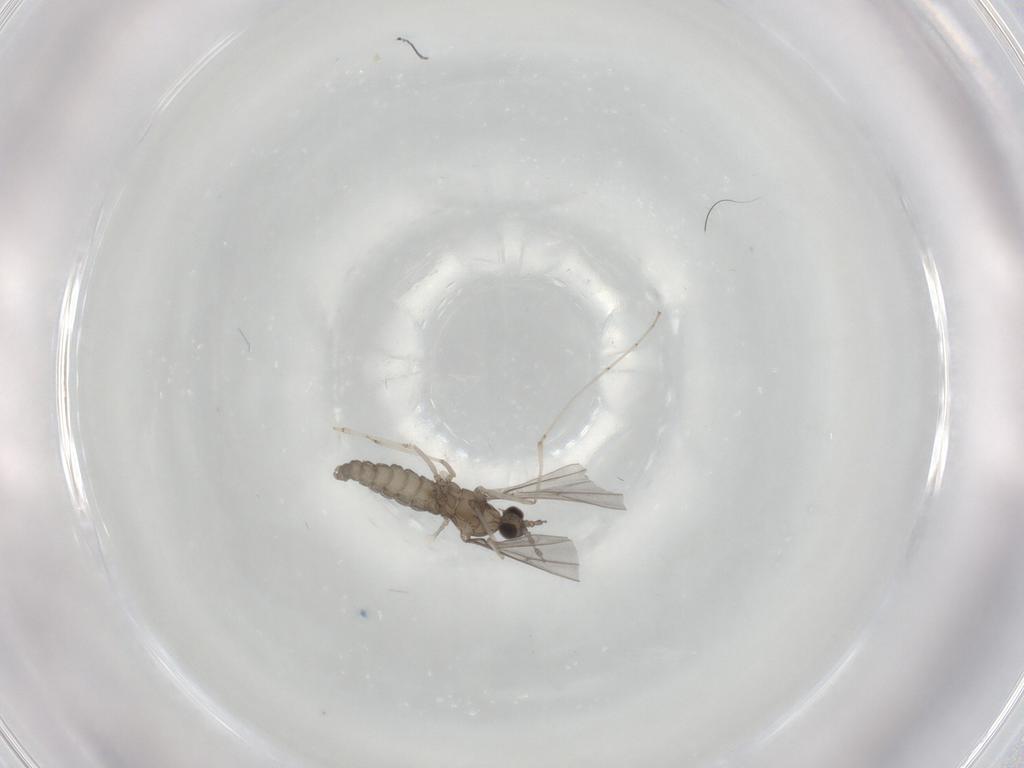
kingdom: Animalia
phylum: Arthropoda
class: Insecta
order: Diptera
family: Cecidomyiidae
